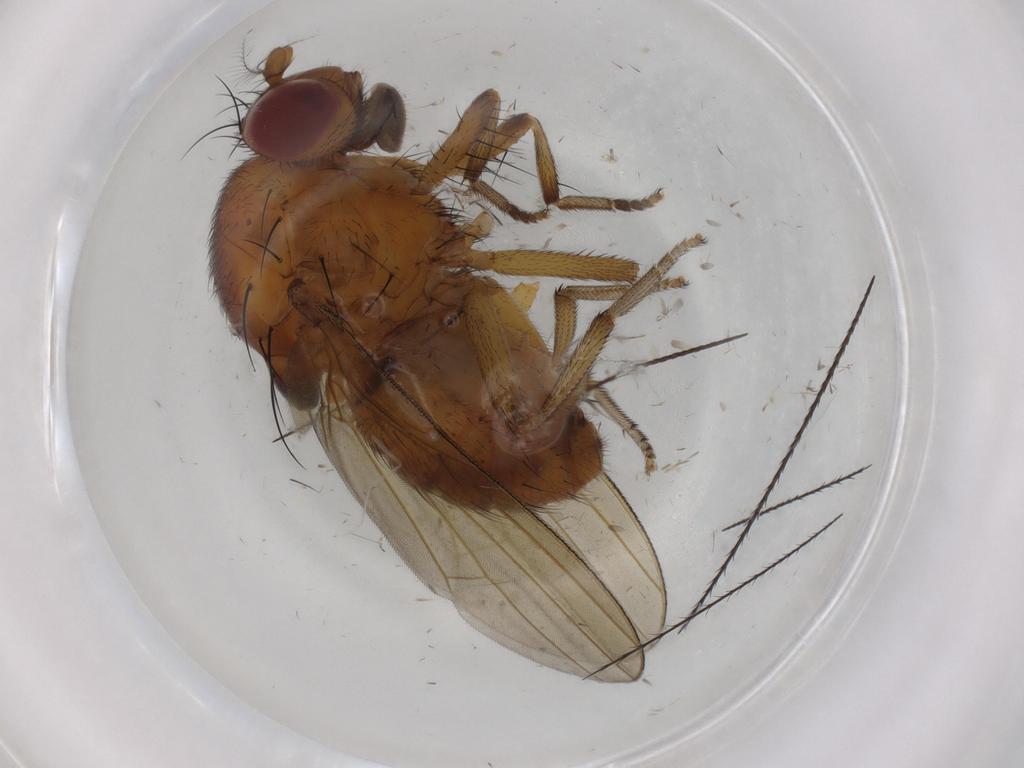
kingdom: Animalia
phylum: Arthropoda
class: Insecta
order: Diptera
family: Cecidomyiidae
